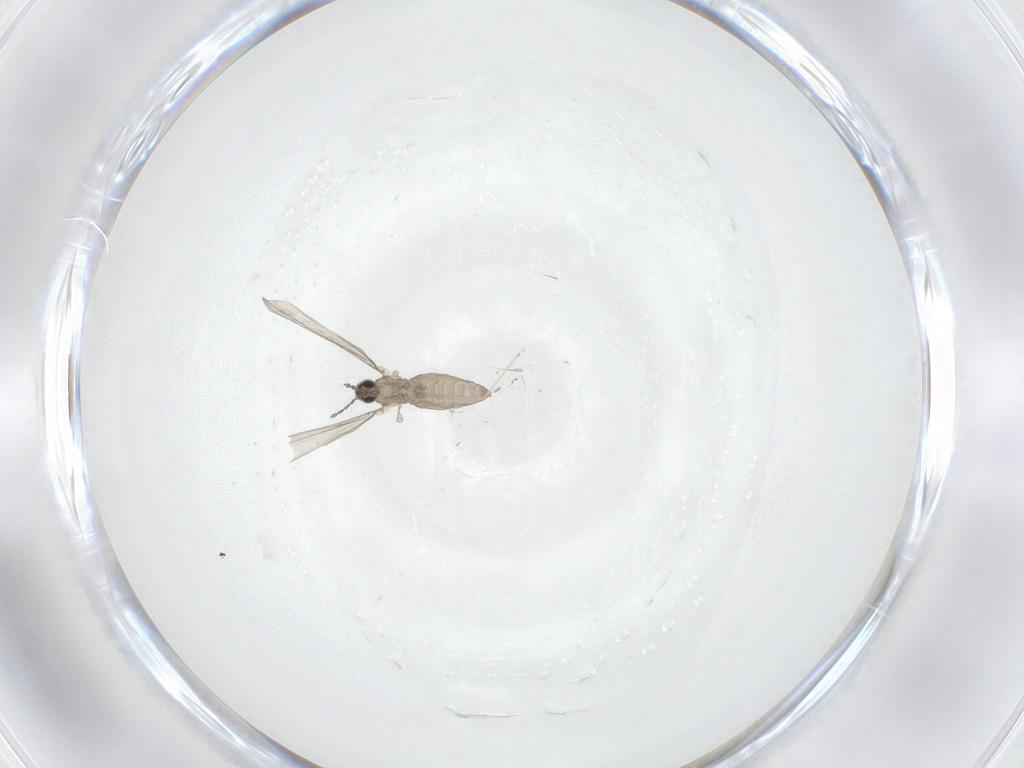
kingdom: Animalia
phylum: Arthropoda
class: Insecta
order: Diptera
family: Cecidomyiidae
